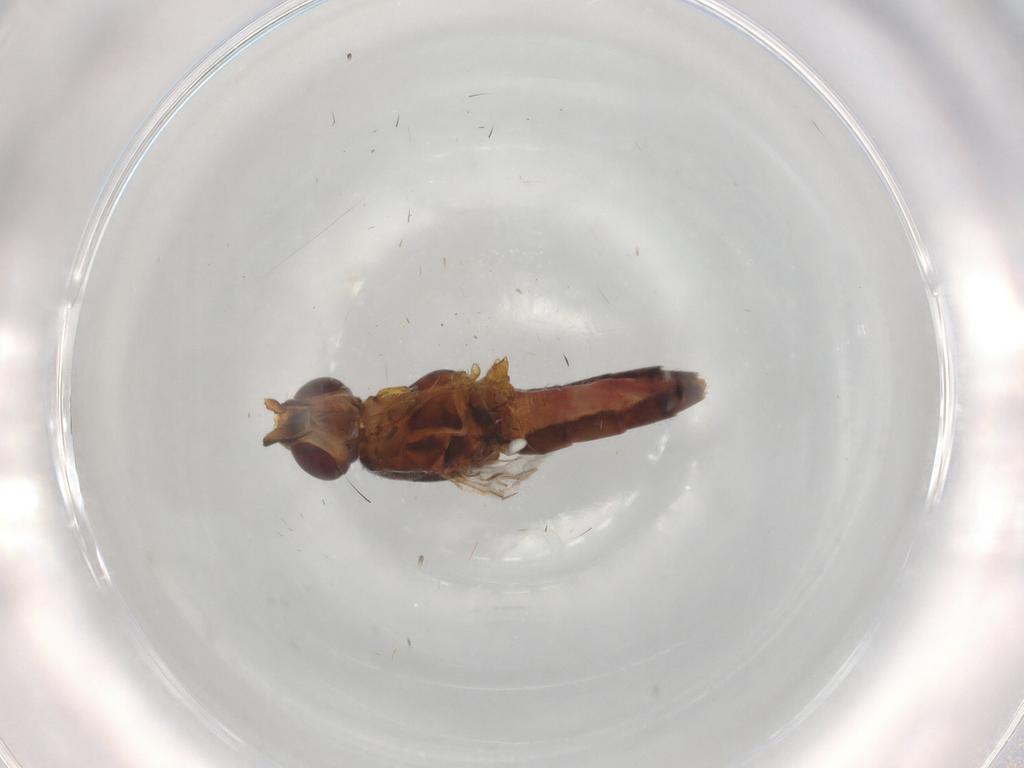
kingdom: Animalia
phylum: Arthropoda
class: Insecta
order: Diptera
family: Chloropidae
